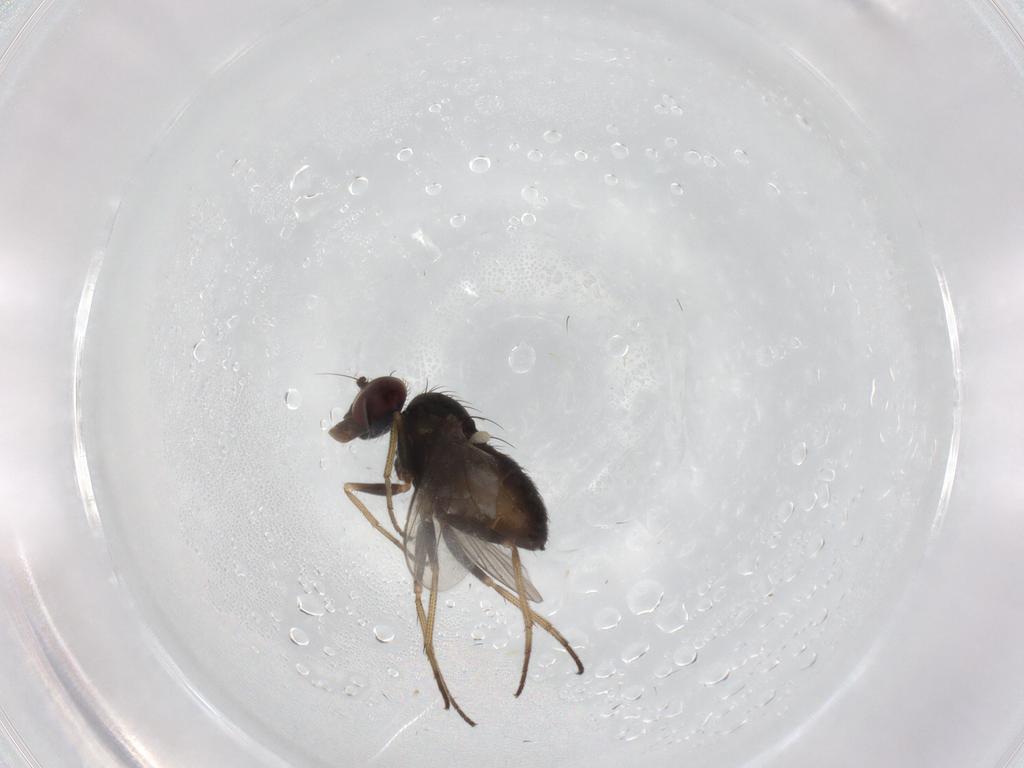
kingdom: Animalia
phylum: Arthropoda
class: Insecta
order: Diptera
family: Dolichopodidae
